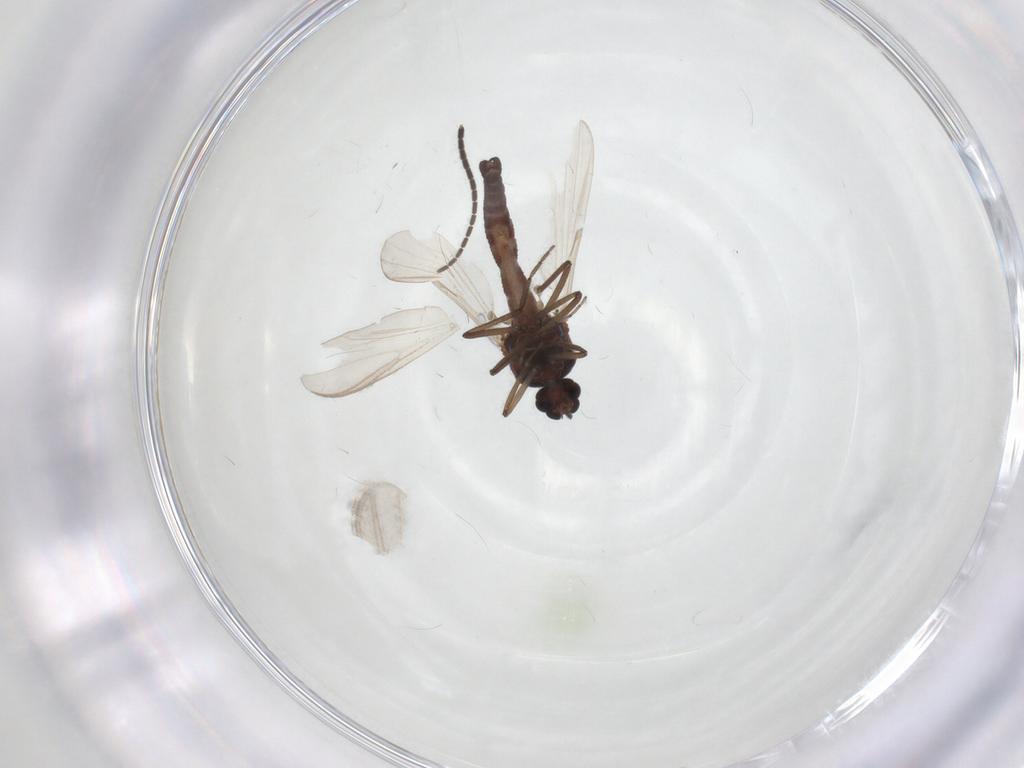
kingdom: Animalia
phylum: Arthropoda
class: Insecta
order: Diptera
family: Ceratopogonidae
